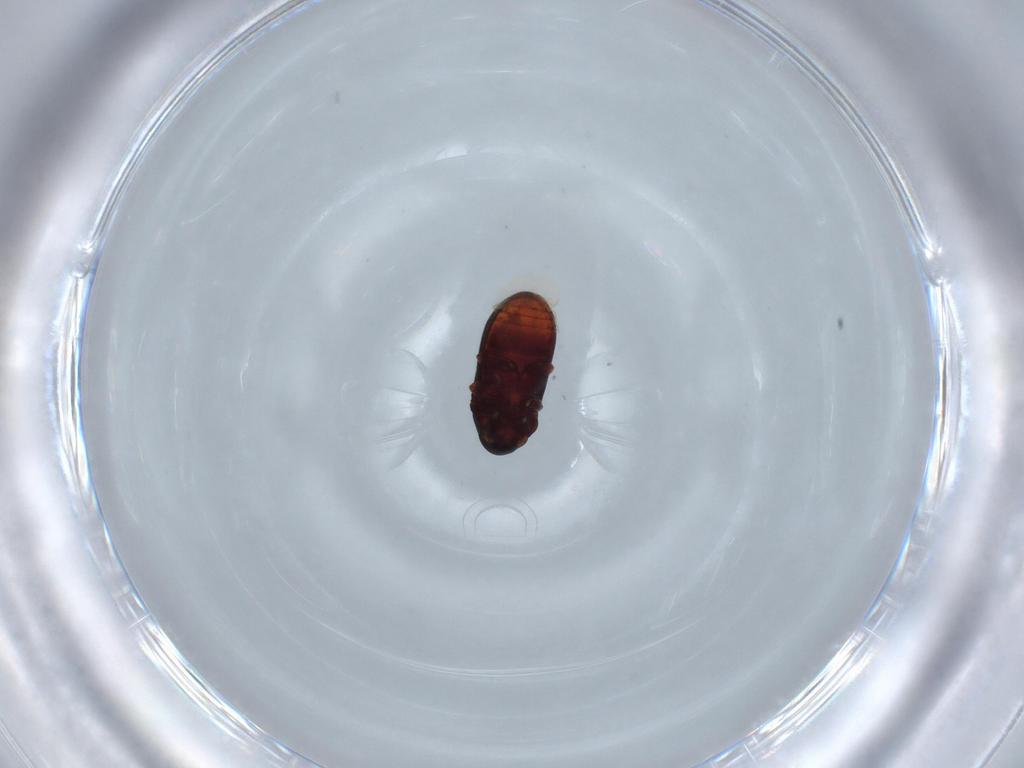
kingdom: Animalia
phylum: Arthropoda
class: Insecta
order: Coleoptera
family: Ptinidae
